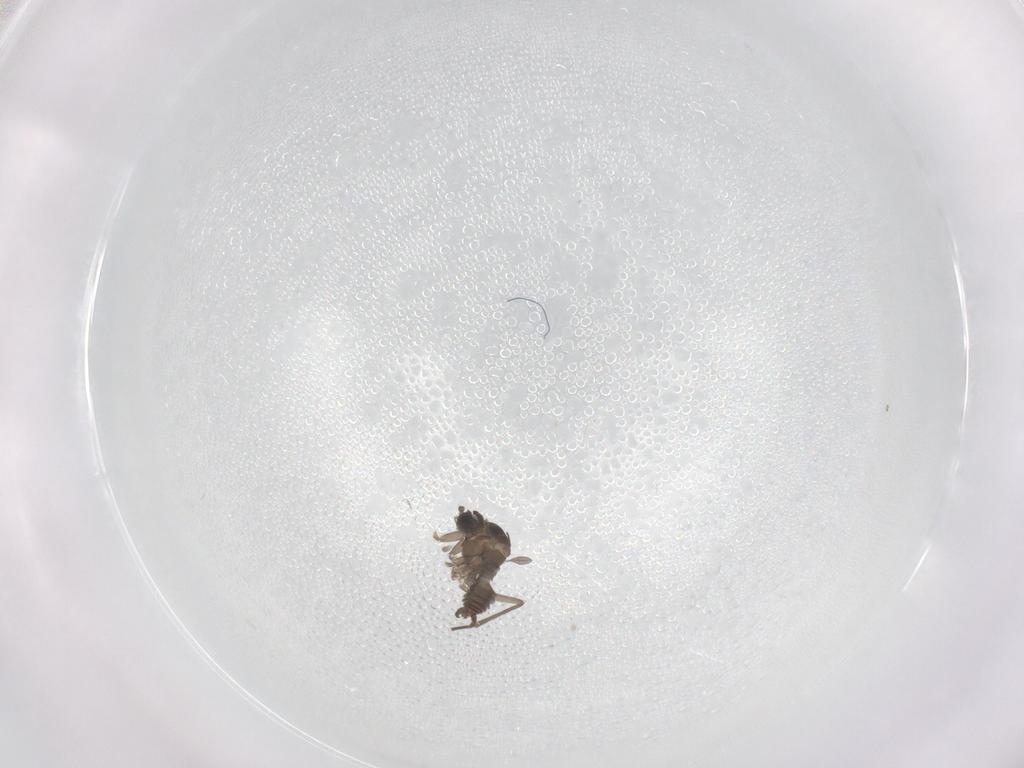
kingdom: Animalia
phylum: Arthropoda
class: Insecta
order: Diptera
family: Sciaridae
